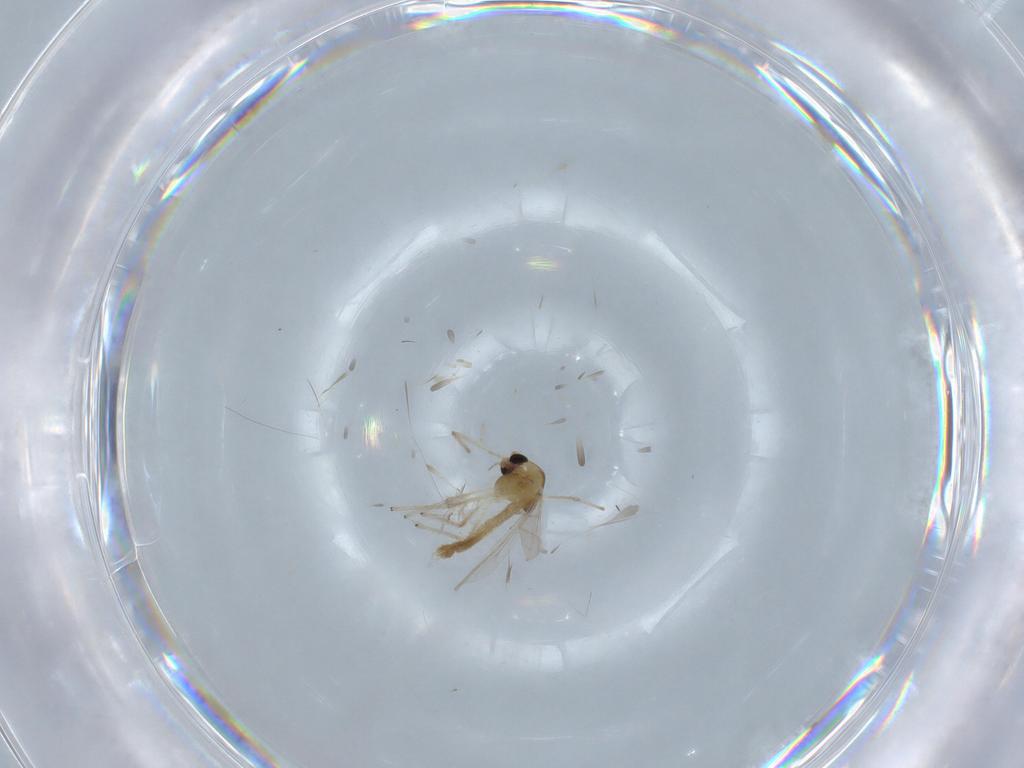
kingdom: Animalia
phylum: Arthropoda
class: Insecta
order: Diptera
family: Chironomidae
